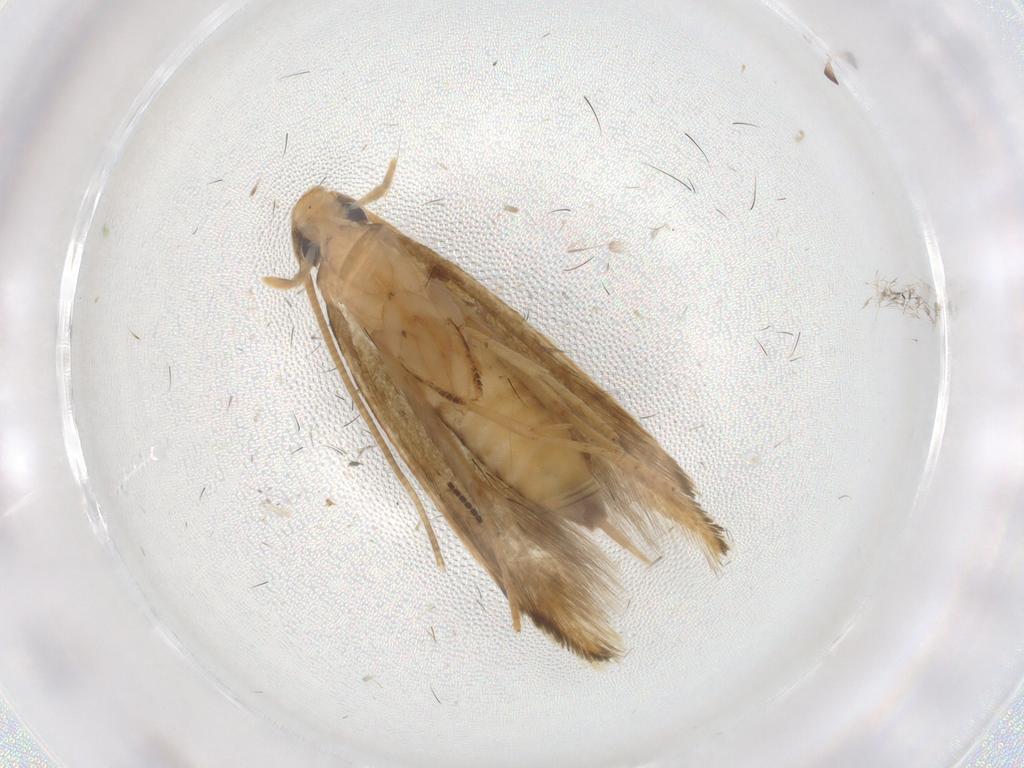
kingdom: Animalia
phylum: Arthropoda
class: Insecta
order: Lepidoptera
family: Tineidae
